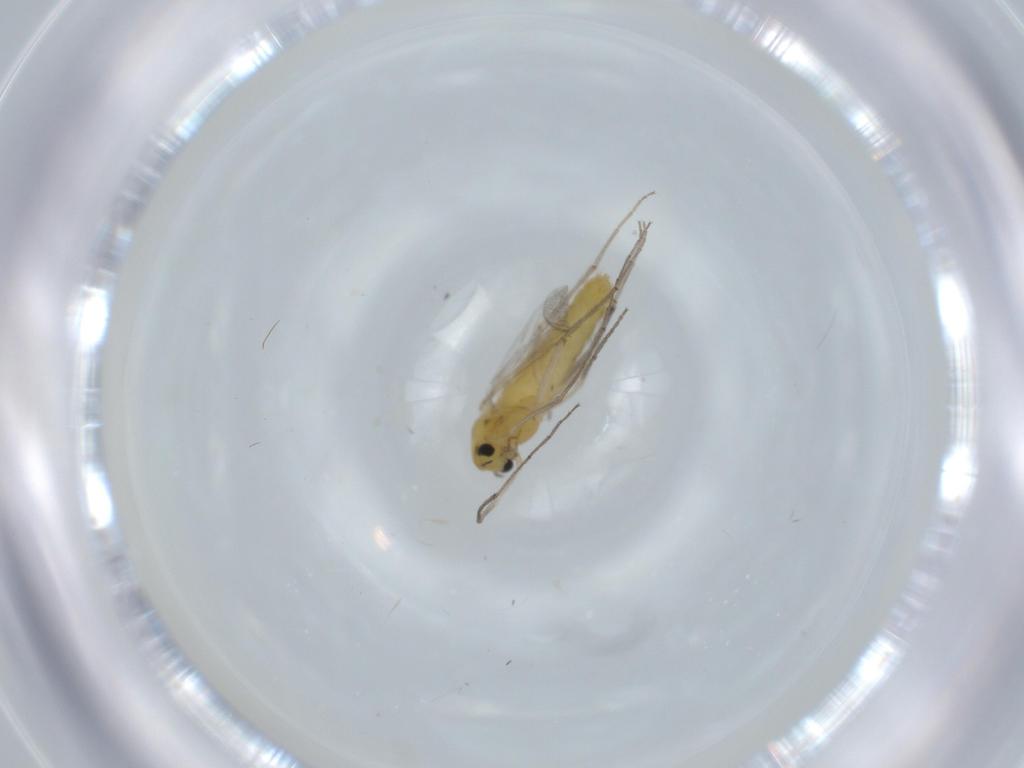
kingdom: Animalia
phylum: Arthropoda
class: Insecta
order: Diptera
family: Chironomidae
